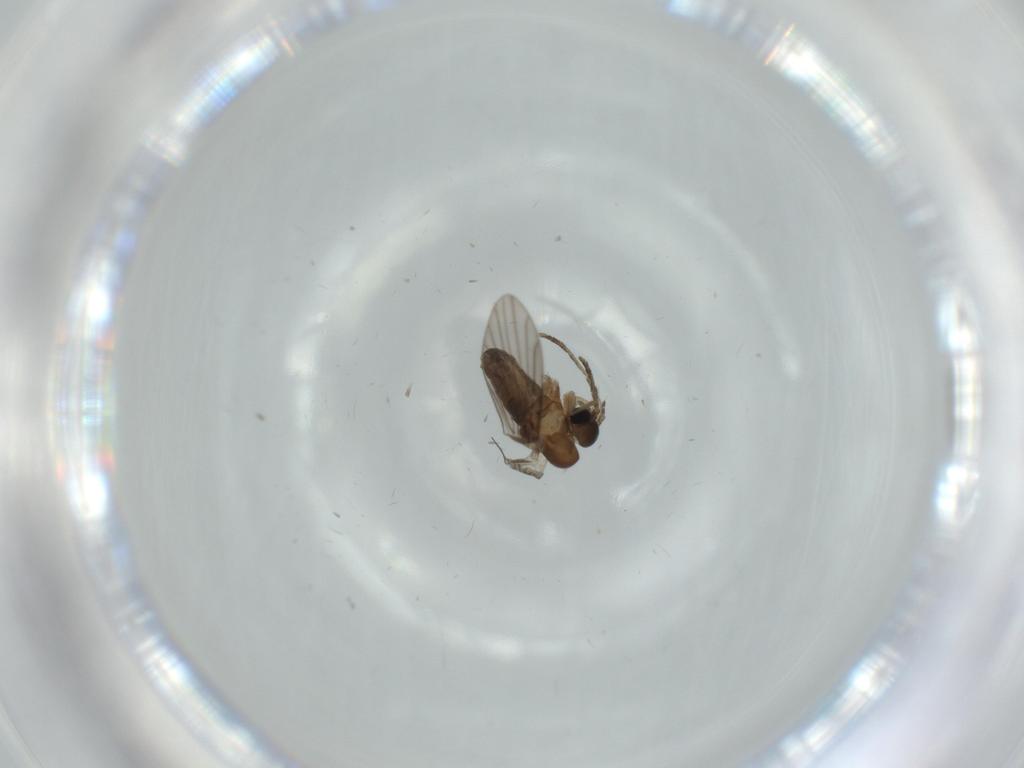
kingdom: Animalia
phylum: Arthropoda
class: Insecta
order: Diptera
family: Psychodidae
